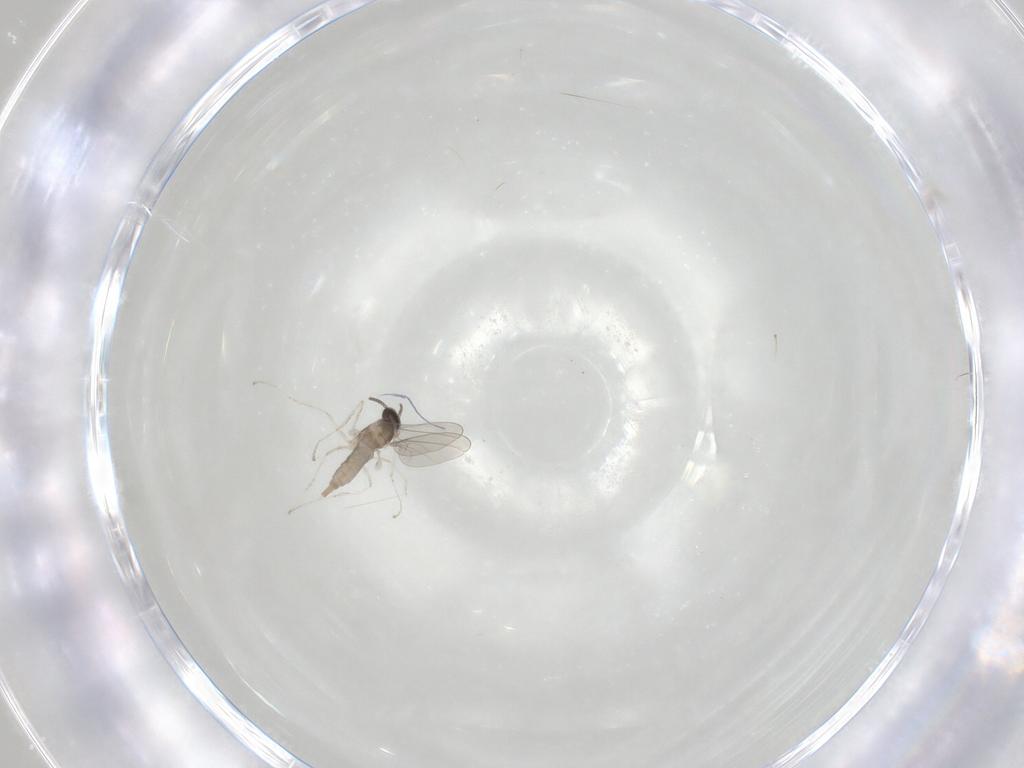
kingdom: Animalia
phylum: Arthropoda
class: Insecta
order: Diptera
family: Cecidomyiidae
